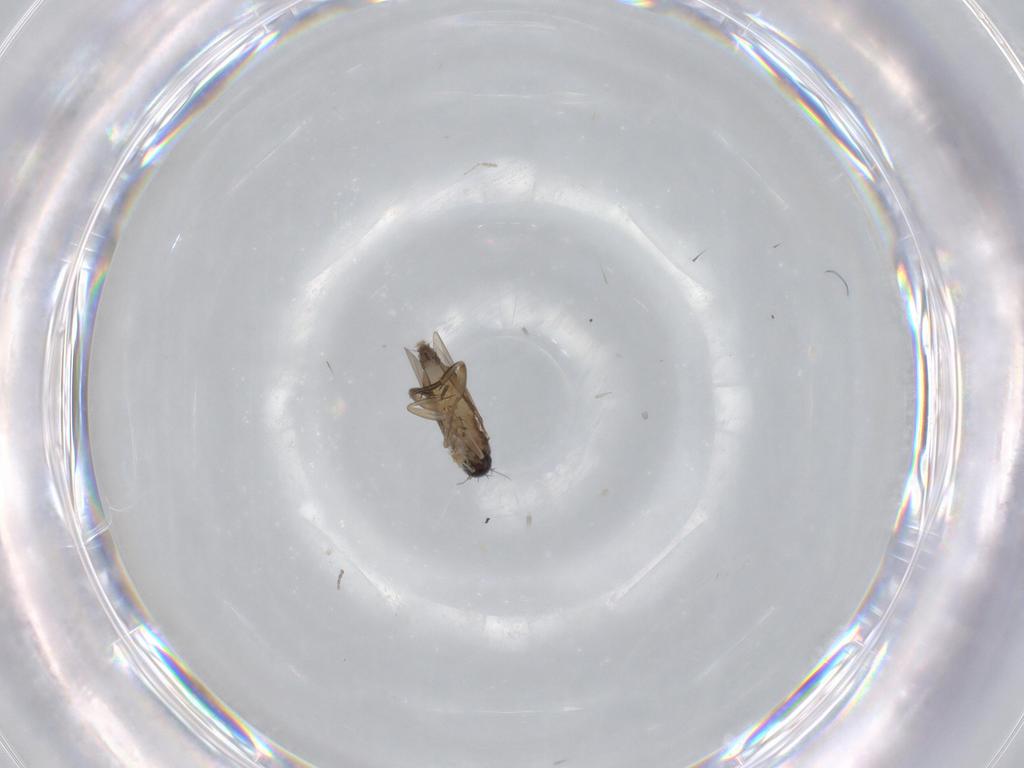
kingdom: Animalia
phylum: Arthropoda
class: Insecta
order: Diptera
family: Phoridae
